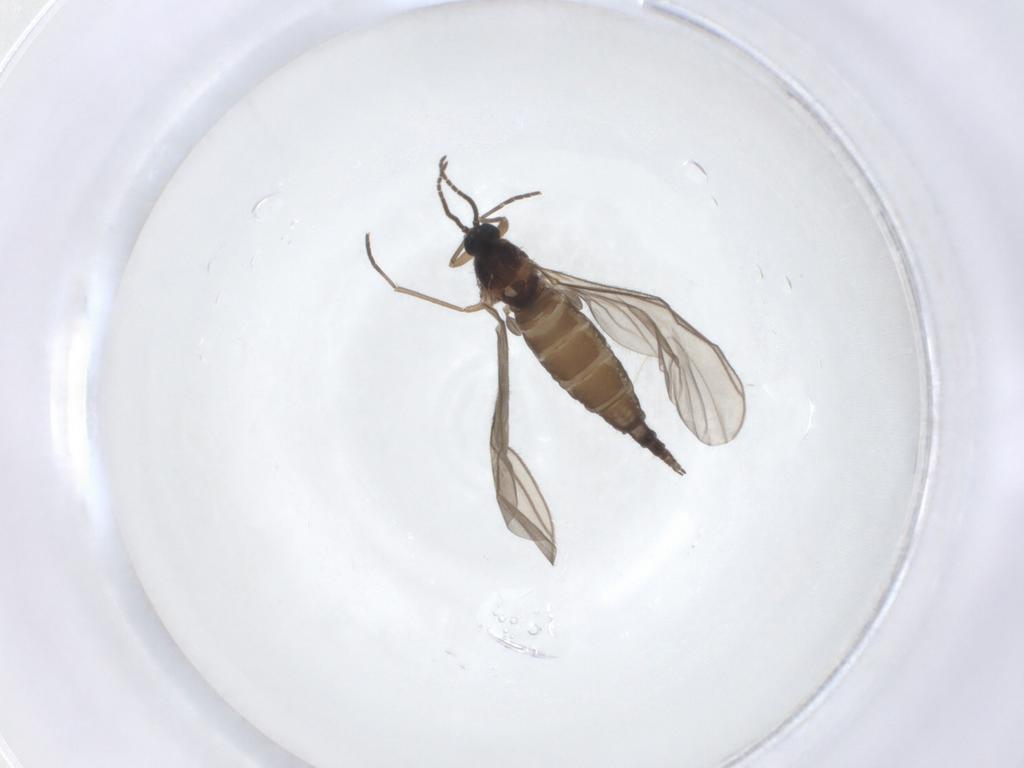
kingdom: Animalia
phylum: Arthropoda
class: Insecta
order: Diptera
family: Sciaridae
